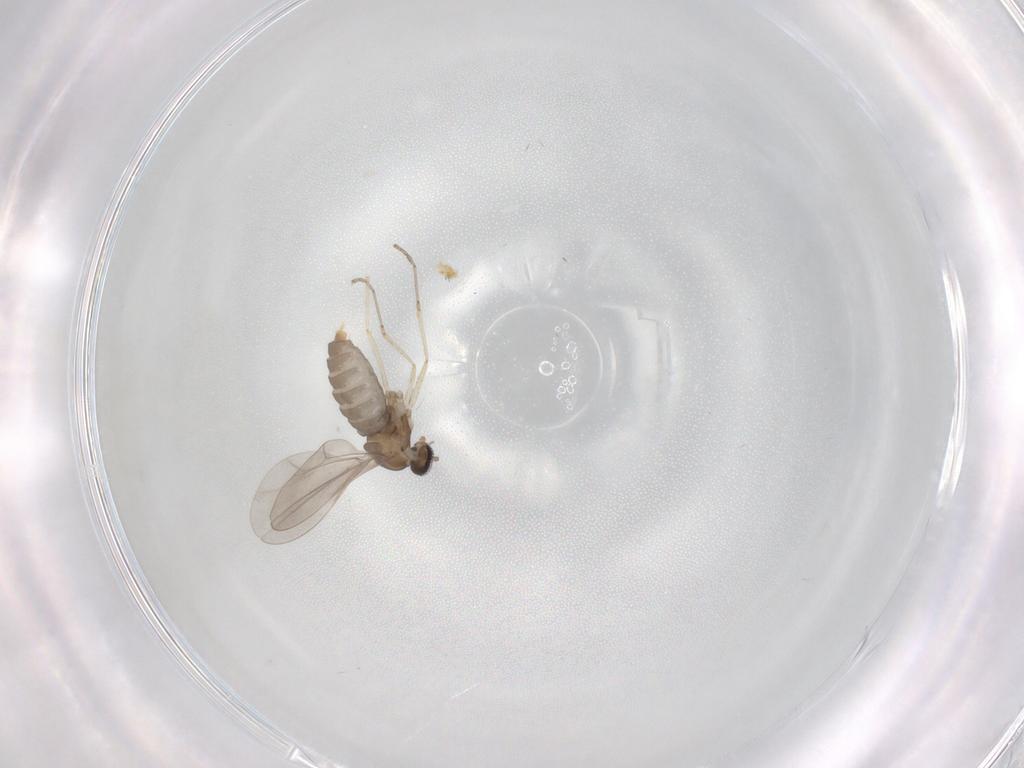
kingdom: Animalia
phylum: Arthropoda
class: Insecta
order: Diptera
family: Cecidomyiidae
